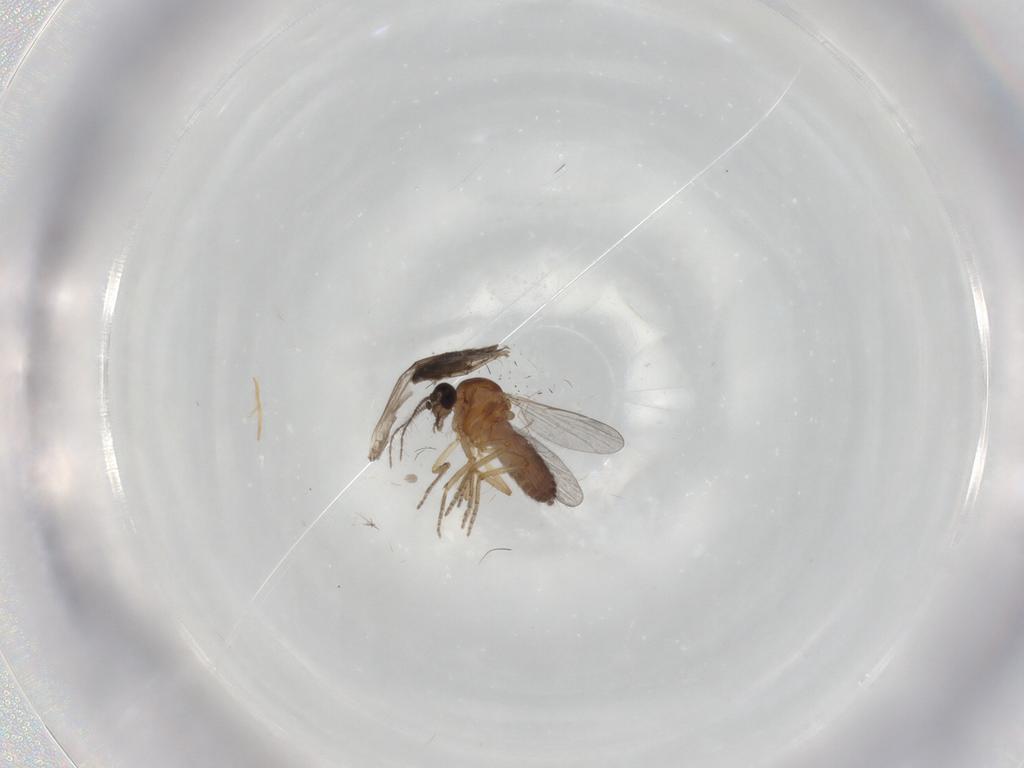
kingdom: Animalia
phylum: Arthropoda
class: Insecta
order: Diptera
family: Ceratopogonidae
